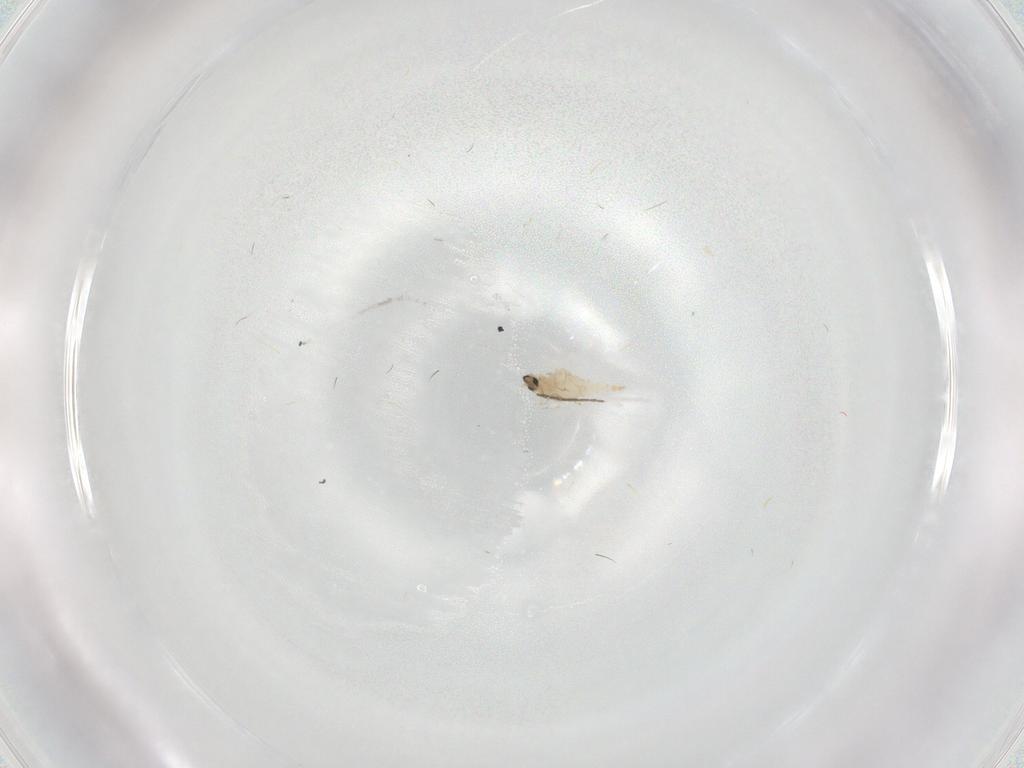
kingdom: Animalia
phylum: Arthropoda
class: Insecta
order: Diptera
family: Cecidomyiidae
